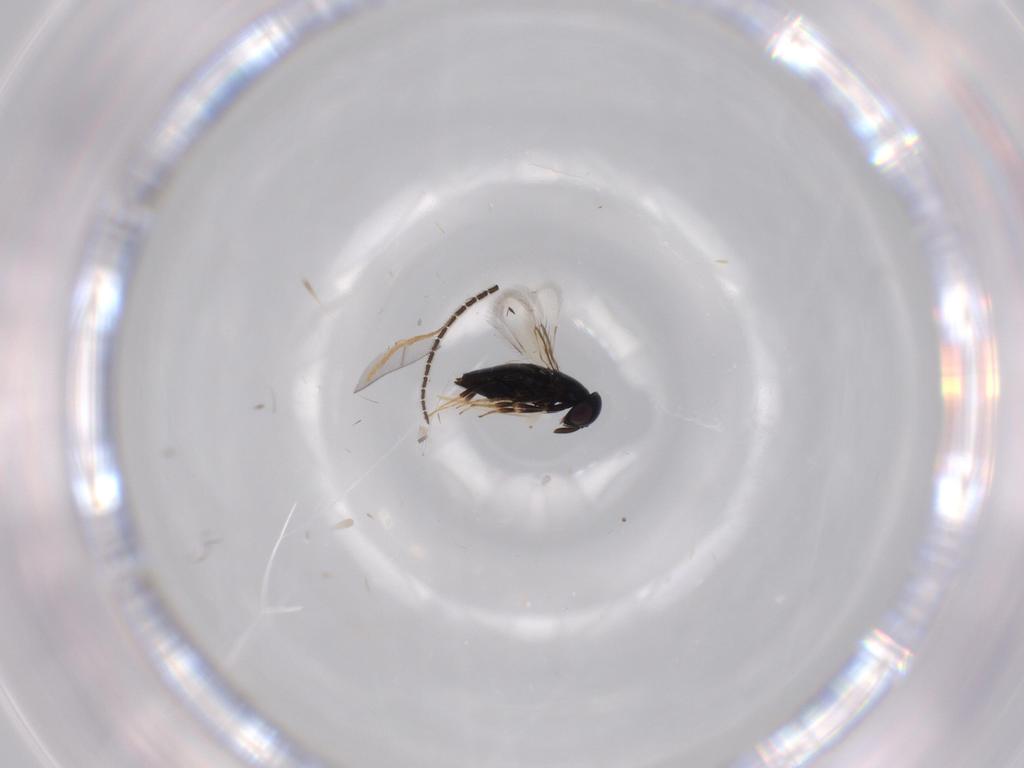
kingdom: Animalia
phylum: Arthropoda
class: Insecta
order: Hymenoptera
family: Signiphoridae
